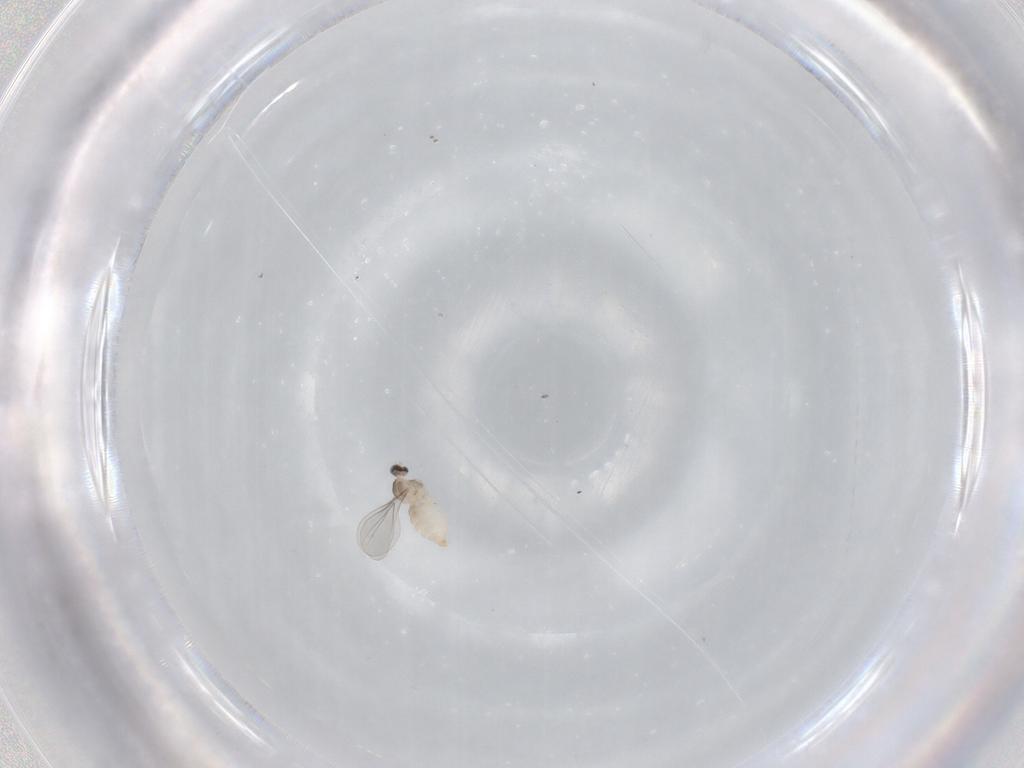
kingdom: Animalia
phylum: Arthropoda
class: Insecta
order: Diptera
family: Cecidomyiidae
